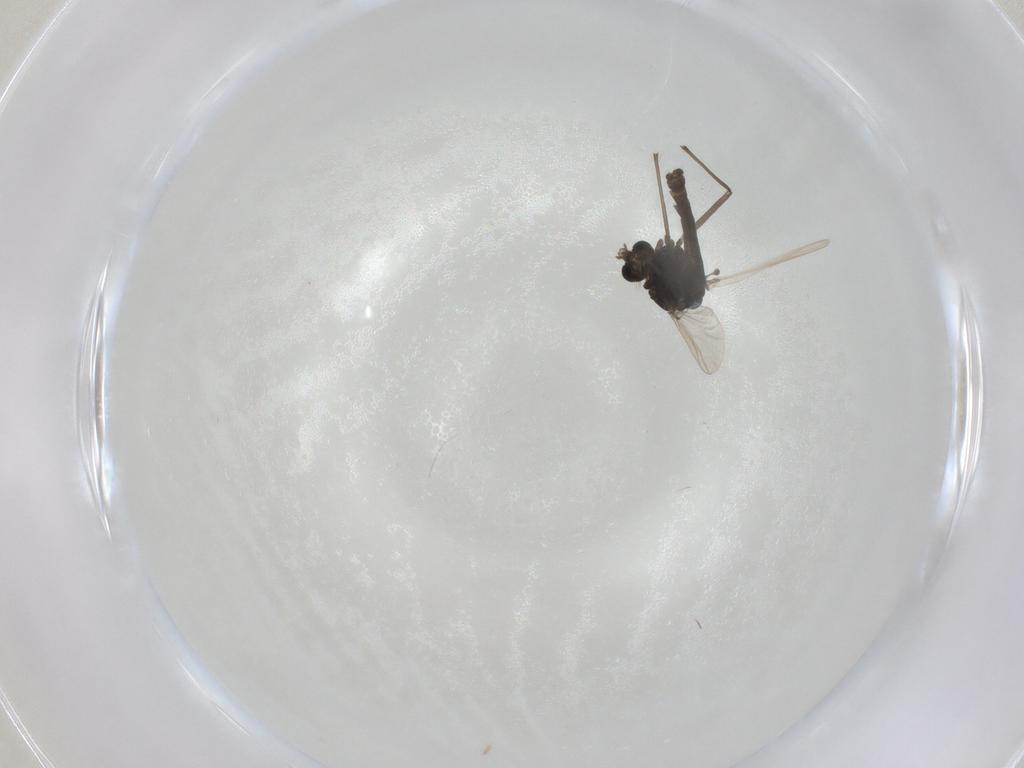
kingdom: Animalia
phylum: Arthropoda
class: Insecta
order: Diptera
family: Chironomidae
